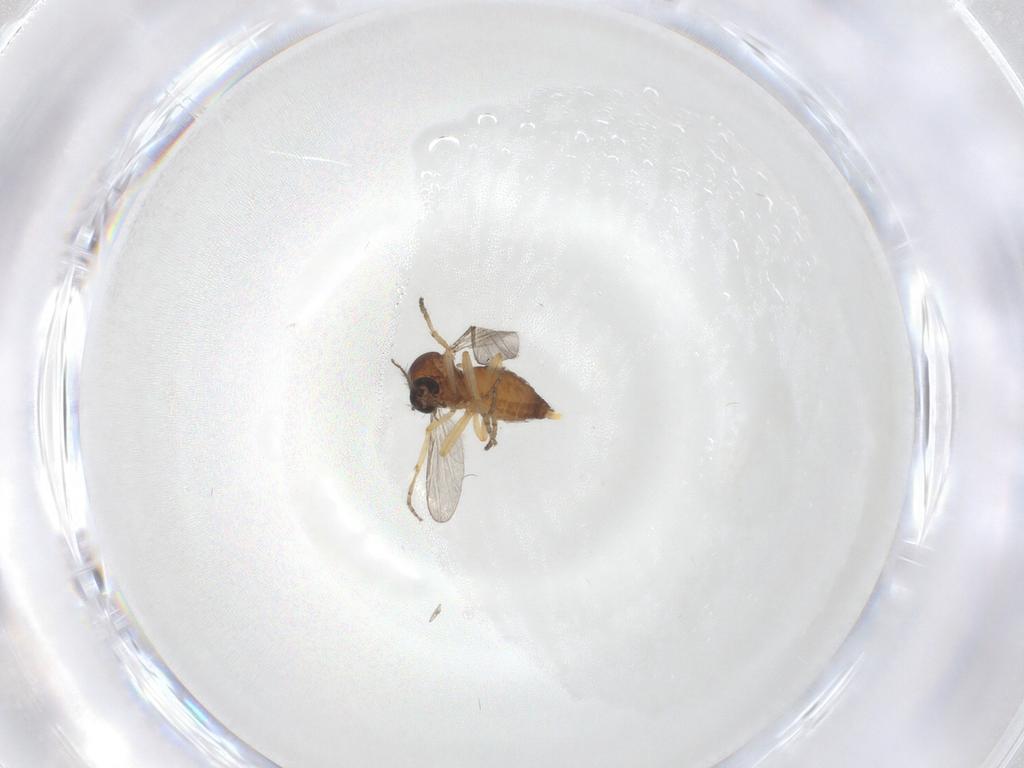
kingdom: Animalia
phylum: Arthropoda
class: Insecta
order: Diptera
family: Ceratopogonidae
